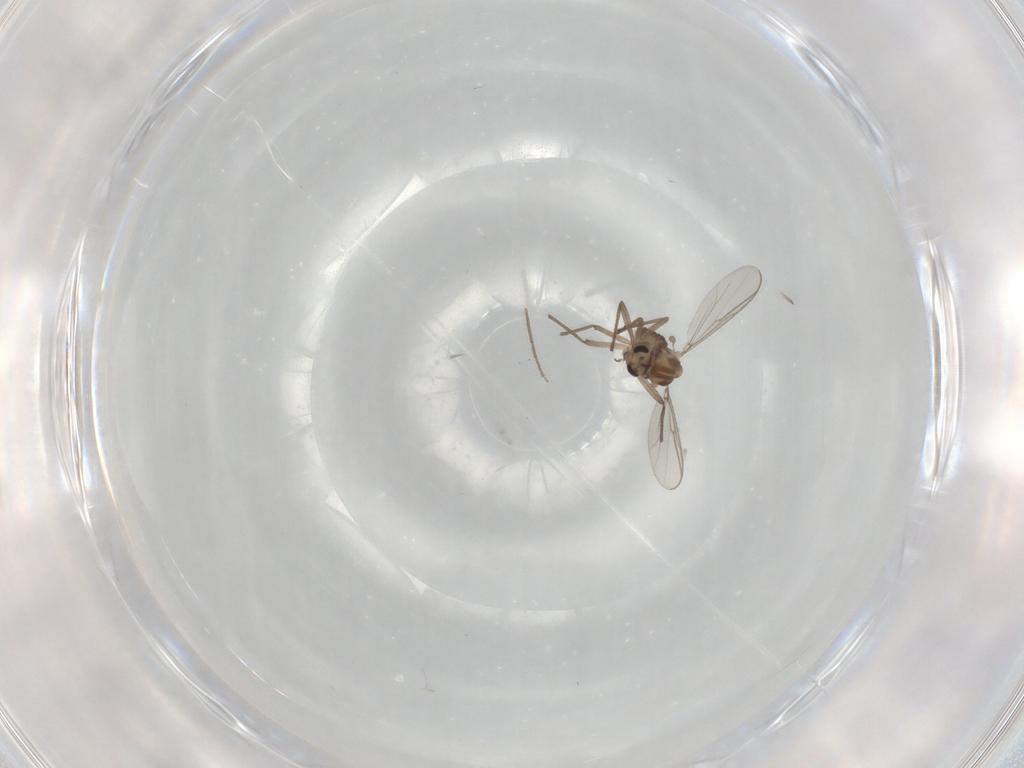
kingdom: Animalia
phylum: Arthropoda
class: Insecta
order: Diptera
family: Chironomidae
